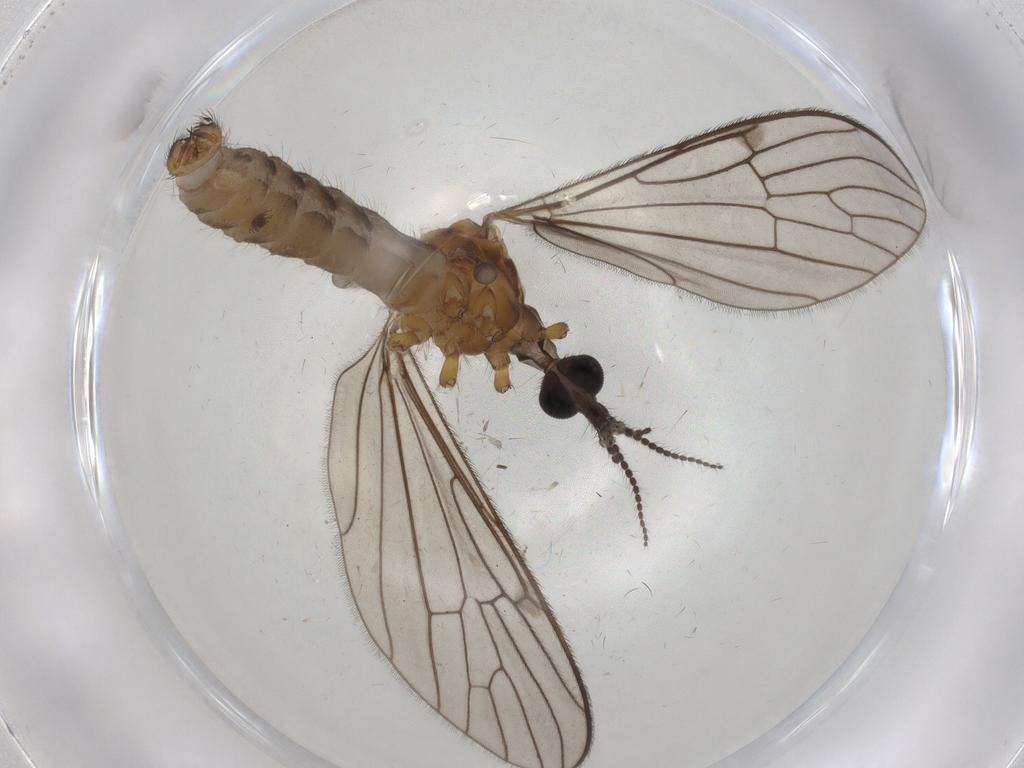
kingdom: Animalia
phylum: Arthropoda
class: Insecta
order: Diptera
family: Limoniidae
